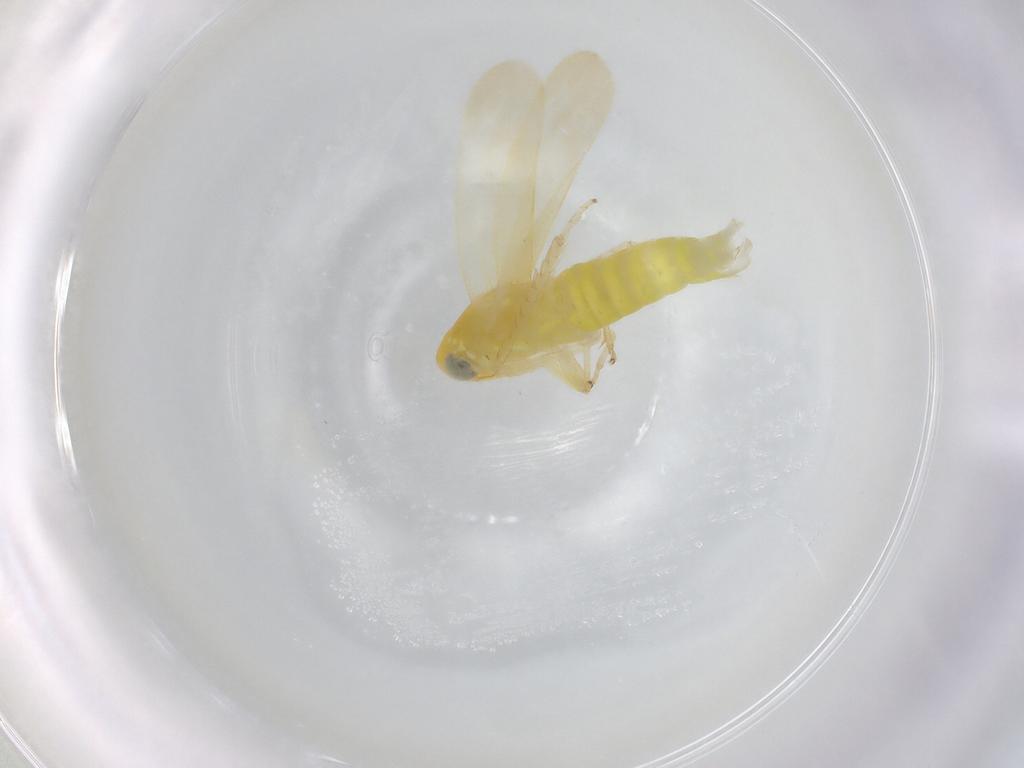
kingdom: Animalia
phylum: Arthropoda
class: Insecta
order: Hemiptera
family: Cicadellidae
